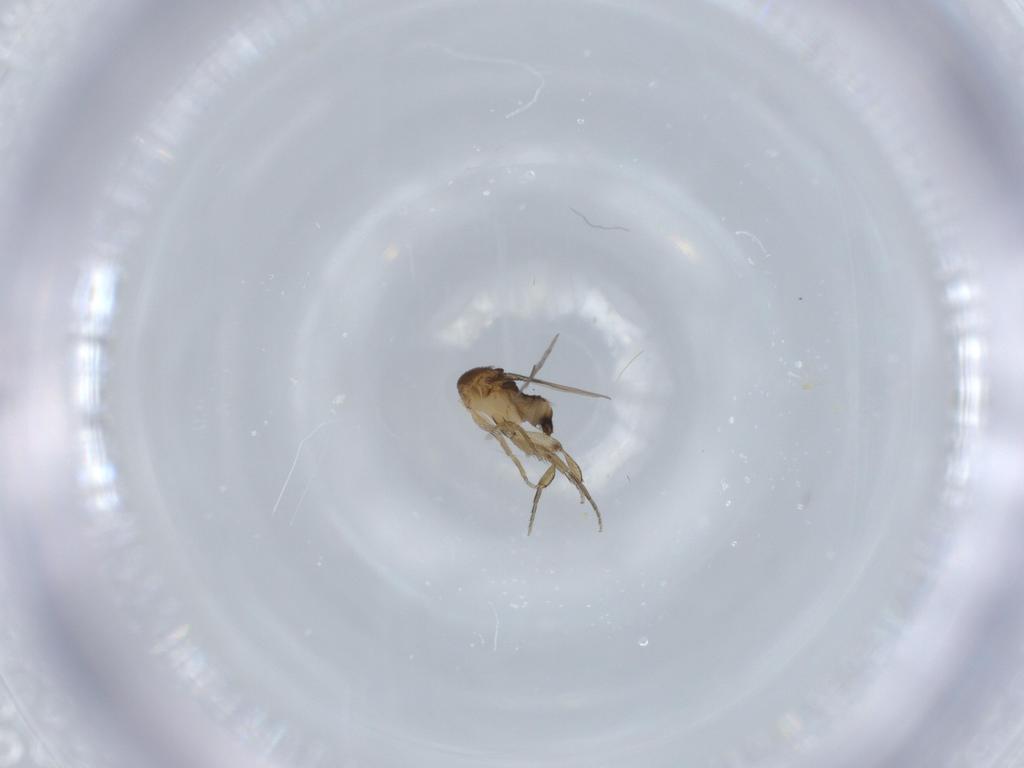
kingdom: Animalia
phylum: Arthropoda
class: Insecta
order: Diptera
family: Phoridae
